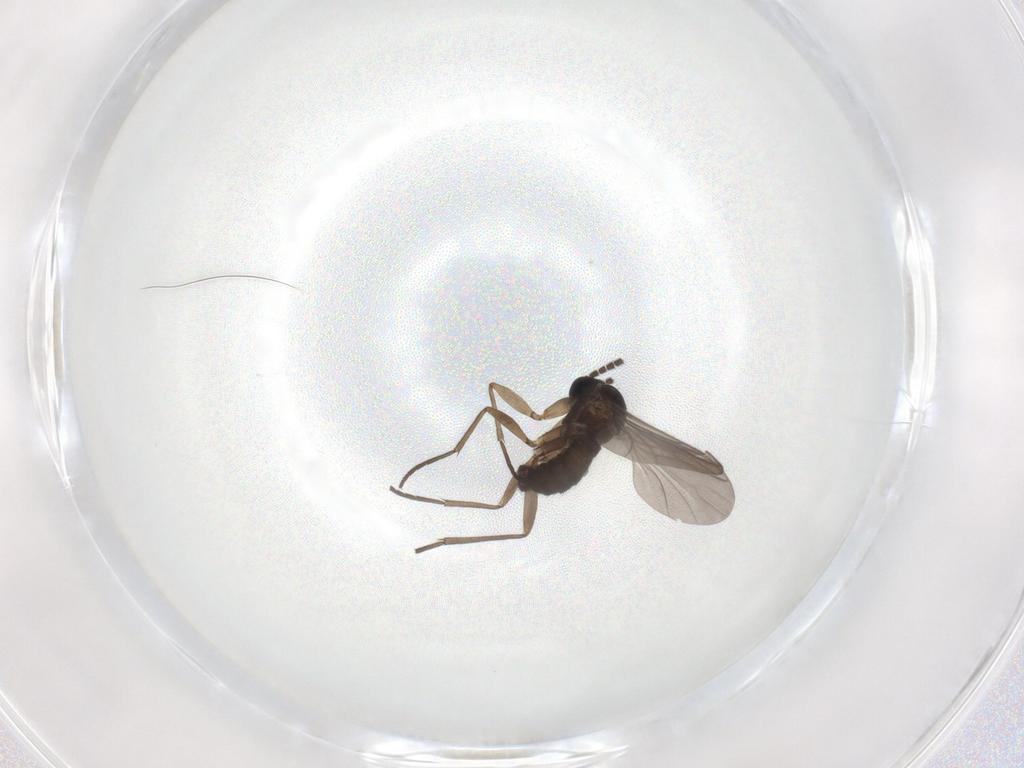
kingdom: Animalia
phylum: Arthropoda
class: Insecta
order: Diptera
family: Sciaridae
